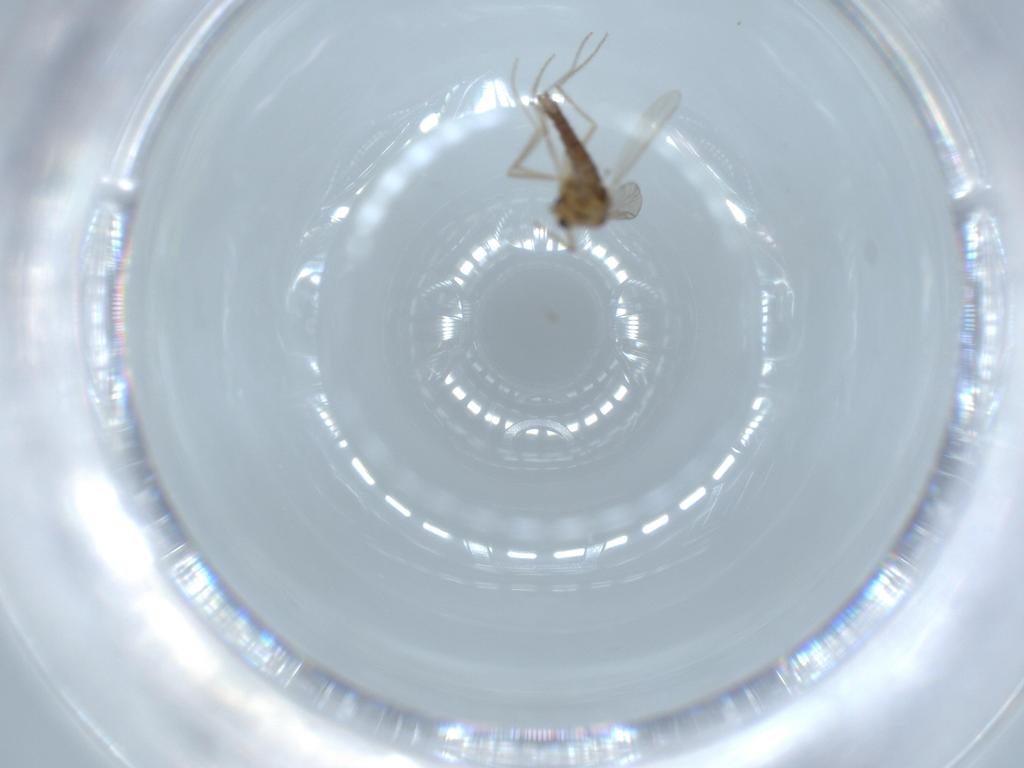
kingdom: Animalia
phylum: Arthropoda
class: Insecta
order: Diptera
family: Chironomidae
